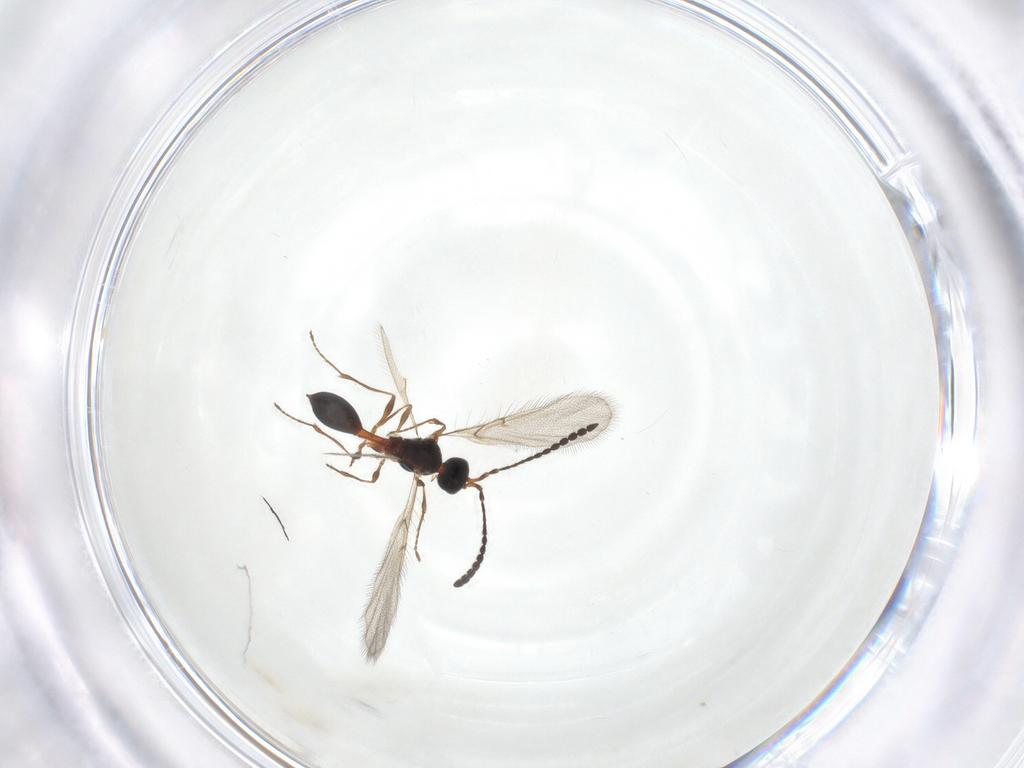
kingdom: Animalia
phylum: Arthropoda
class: Insecta
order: Hymenoptera
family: Diapriidae
